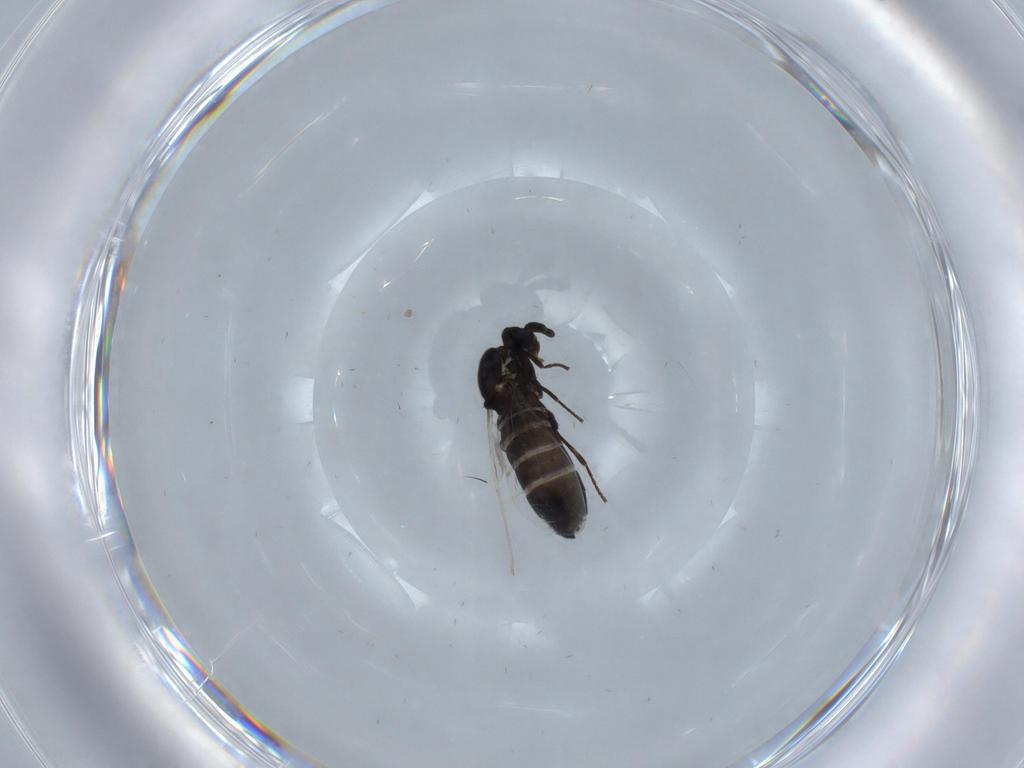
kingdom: Animalia
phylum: Arthropoda
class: Insecta
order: Diptera
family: Scatopsidae
